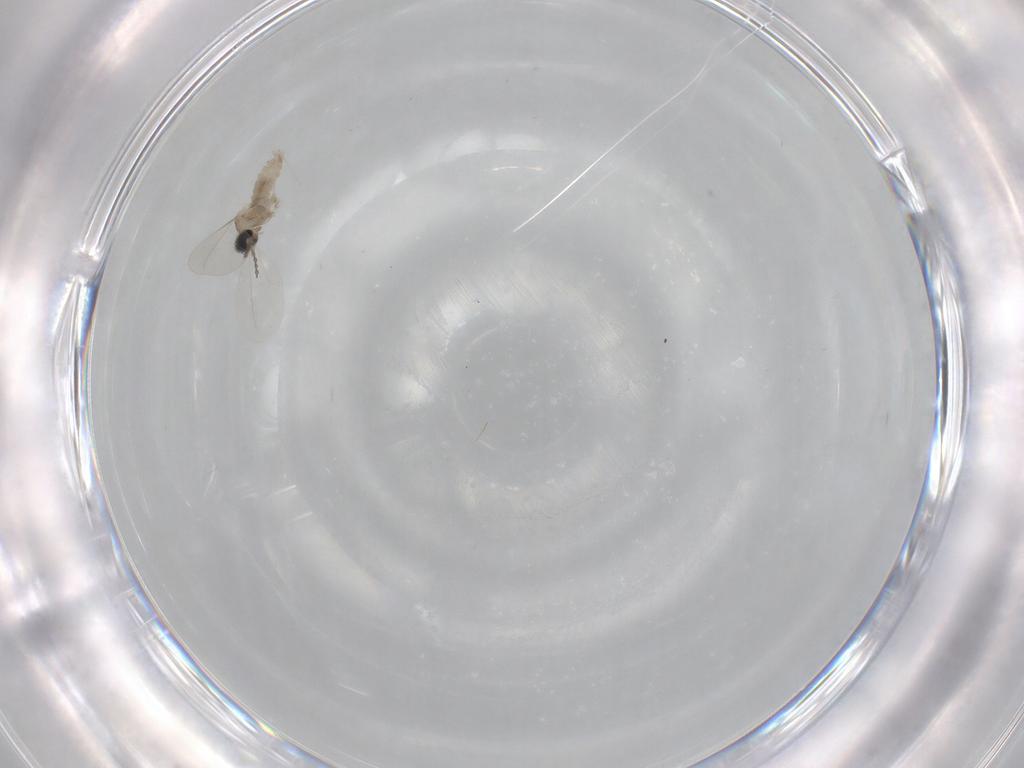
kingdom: Animalia
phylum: Arthropoda
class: Insecta
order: Diptera
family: Cecidomyiidae
